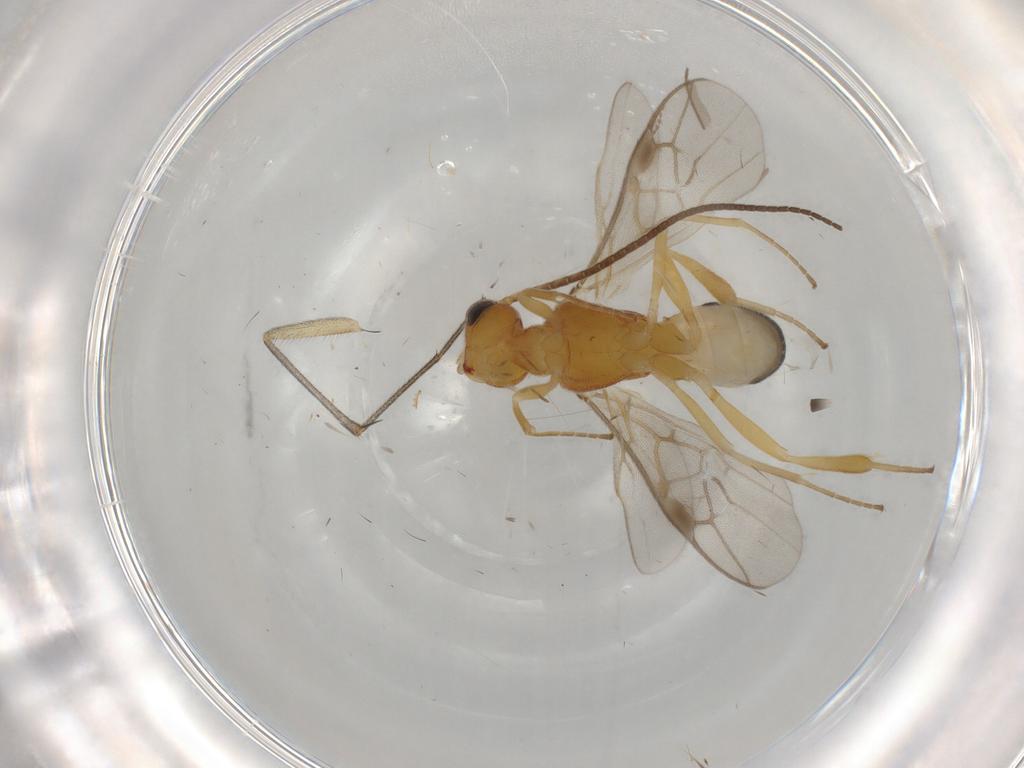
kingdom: Animalia
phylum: Arthropoda
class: Insecta
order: Hymenoptera
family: Braconidae
